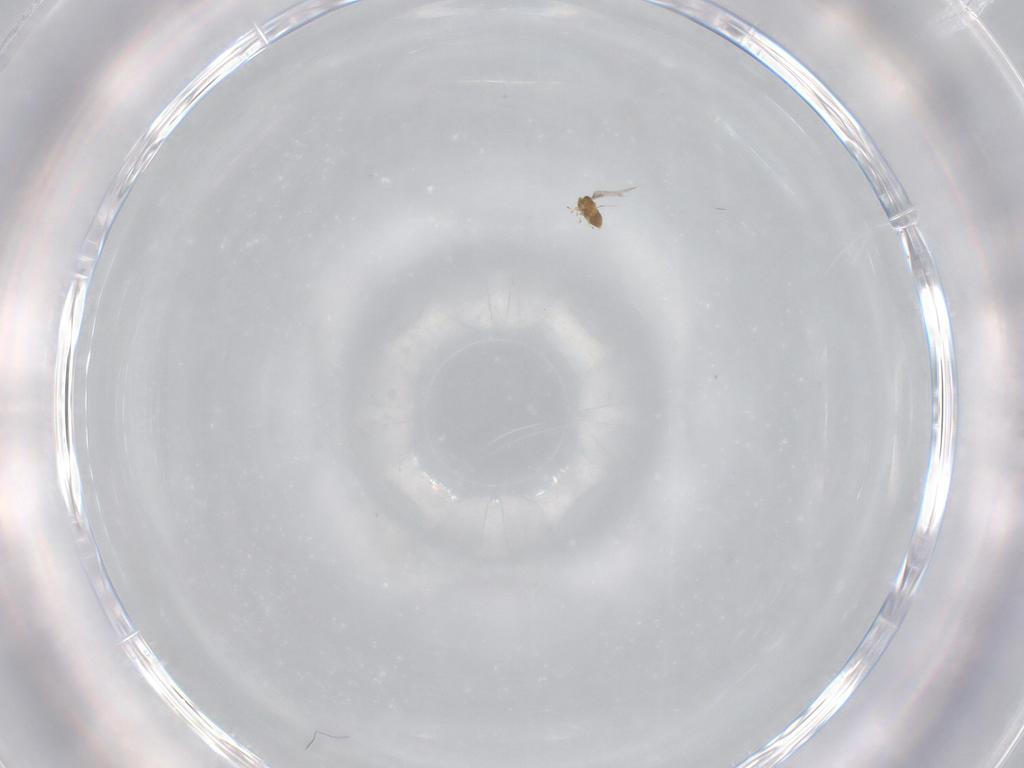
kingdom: Animalia
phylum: Arthropoda
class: Insecta
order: Hymenoptera
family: Trichogrammatidae
